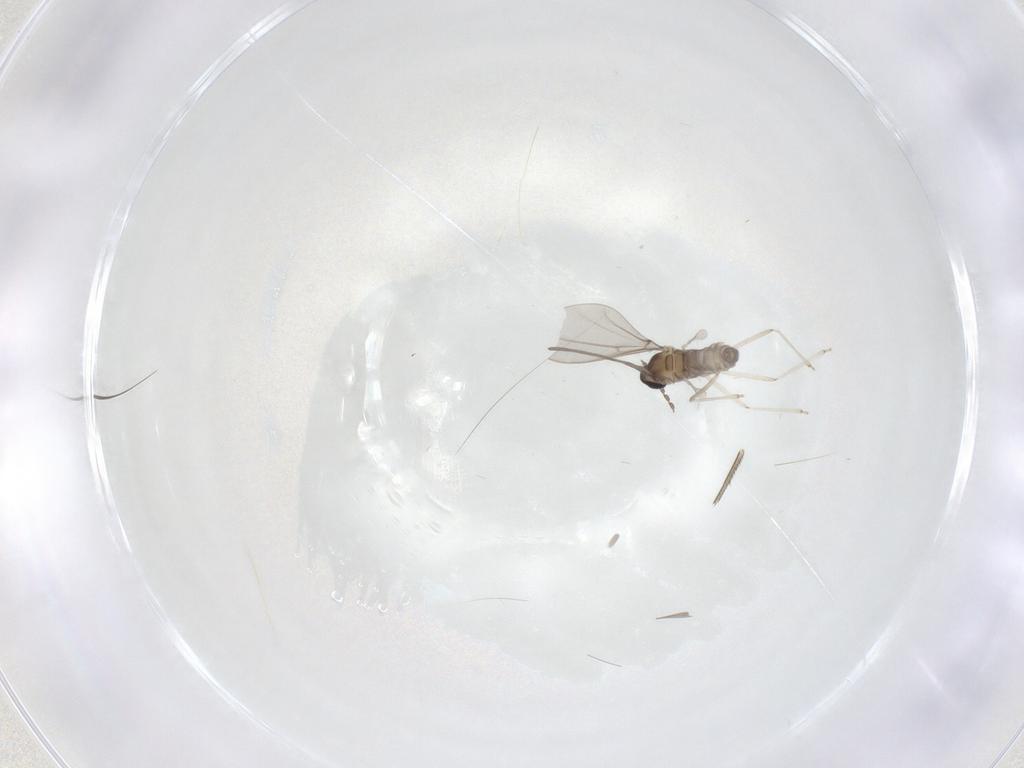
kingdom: Animalia
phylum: Arthropoda
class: Insecta
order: Diptera
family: Cecidomyiidae
